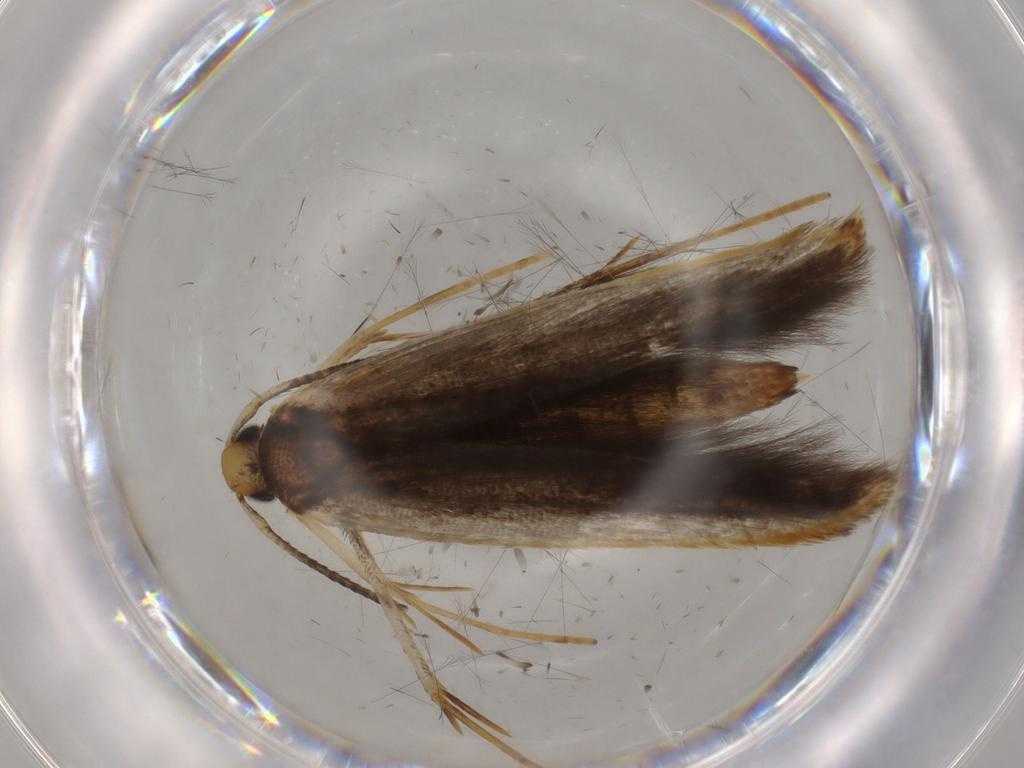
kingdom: Animalia
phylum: Arthropoda
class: Insecta
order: Lepidoptera
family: Pterolonchidae
